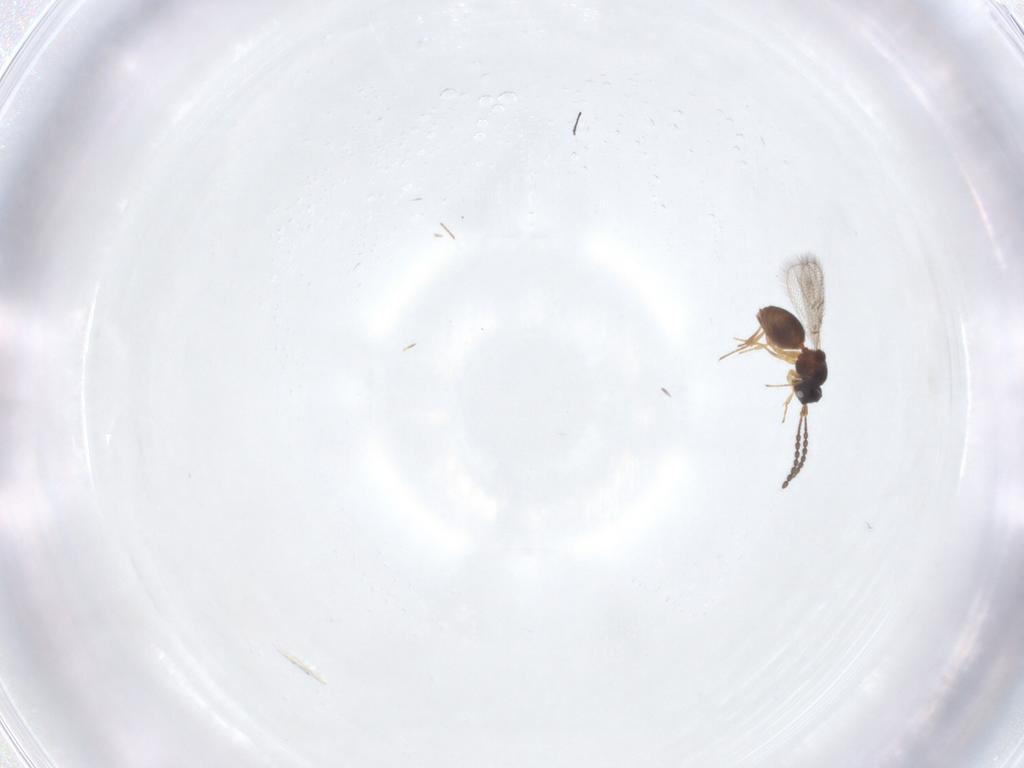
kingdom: Animalia
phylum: Arthropoda
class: Insecta
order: Hymenoptera
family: Figitidae
